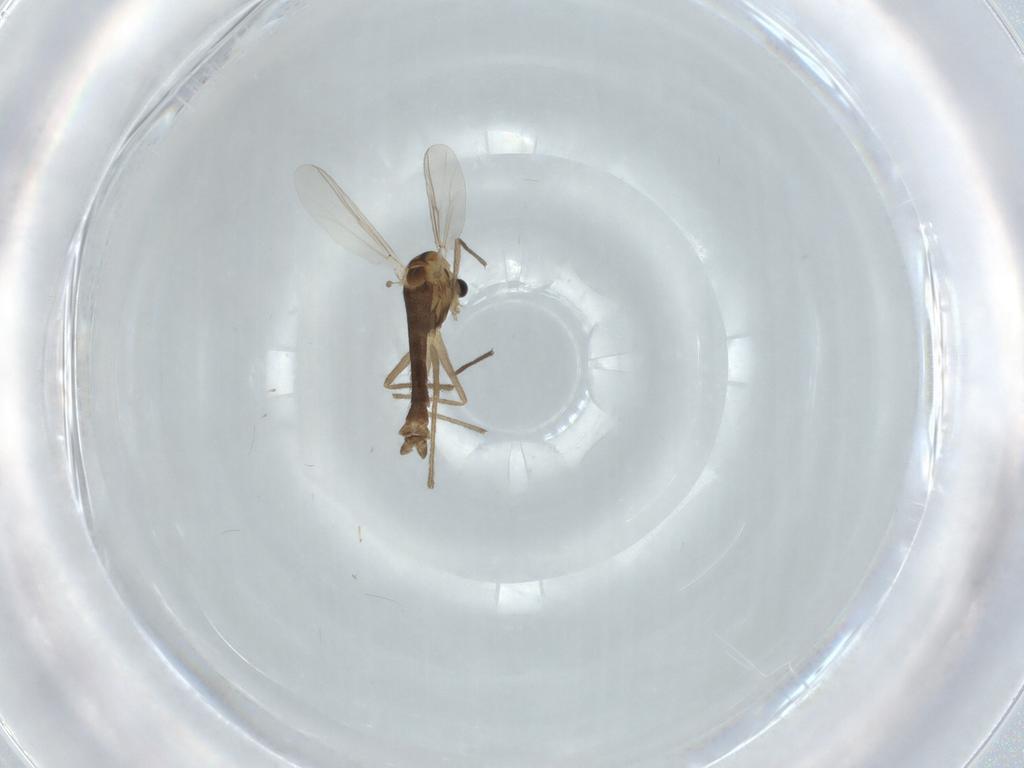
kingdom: Animalia
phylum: Arthropoda
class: Insecta
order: Diptera
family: Chironomidae
